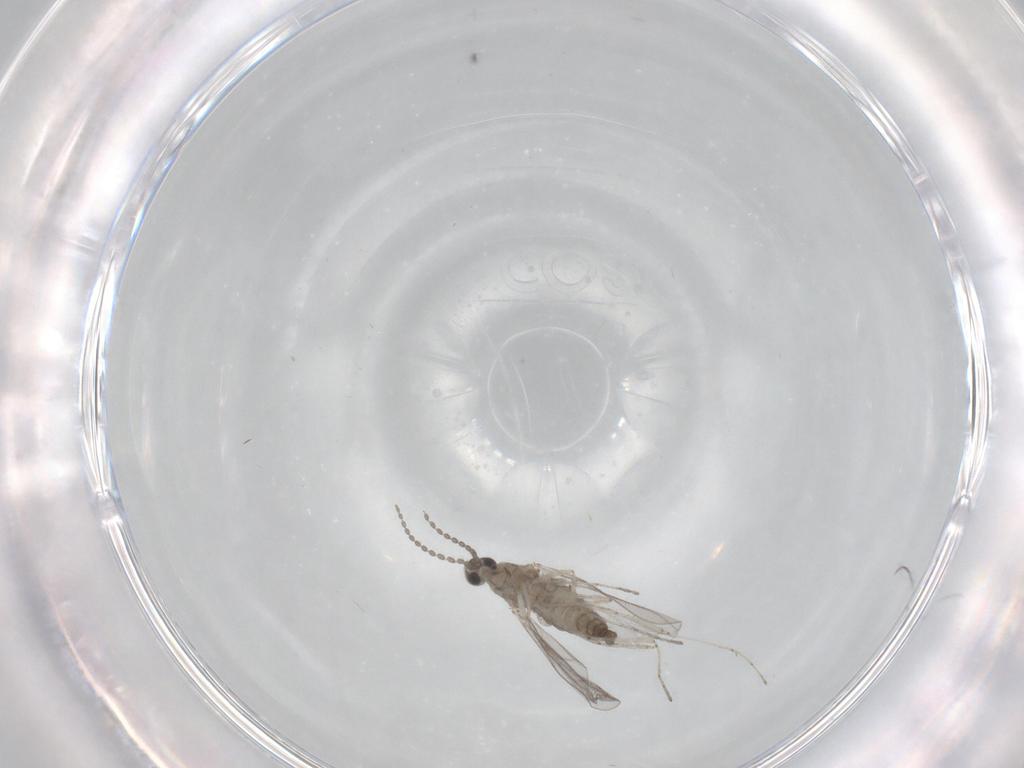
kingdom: Animalia
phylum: Arthropoda
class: Insecta
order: Diptera
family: Cecidomyiidae
